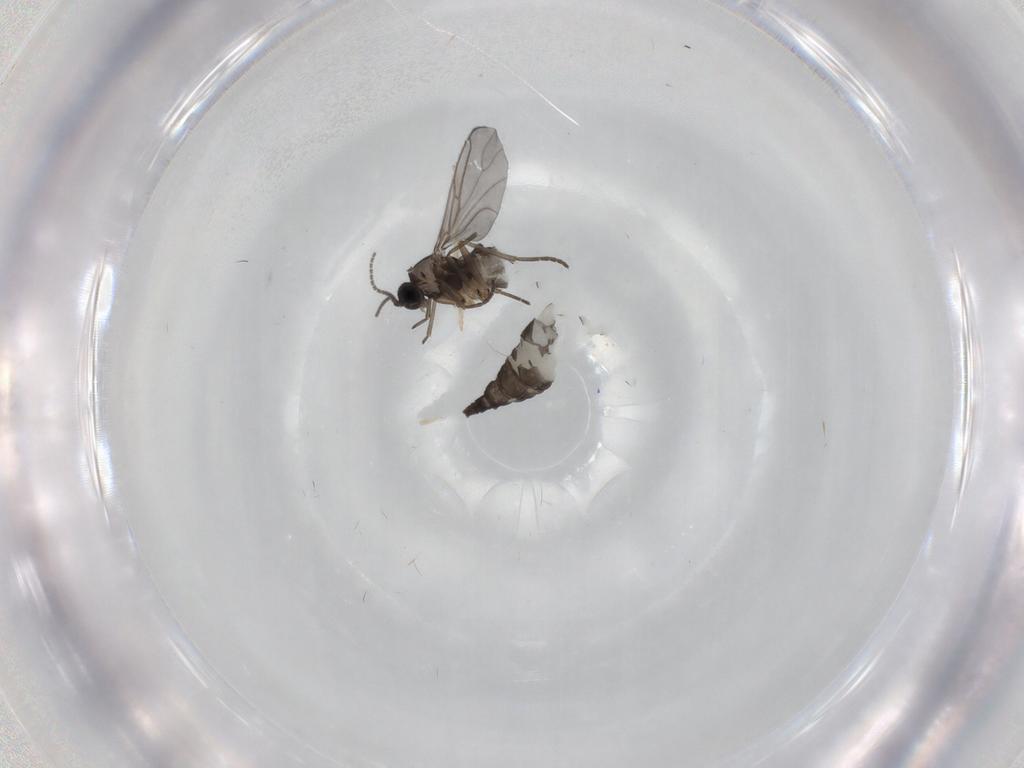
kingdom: Animalia
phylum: Arthropoda
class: Insecta
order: Diptera
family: Sciaridae
